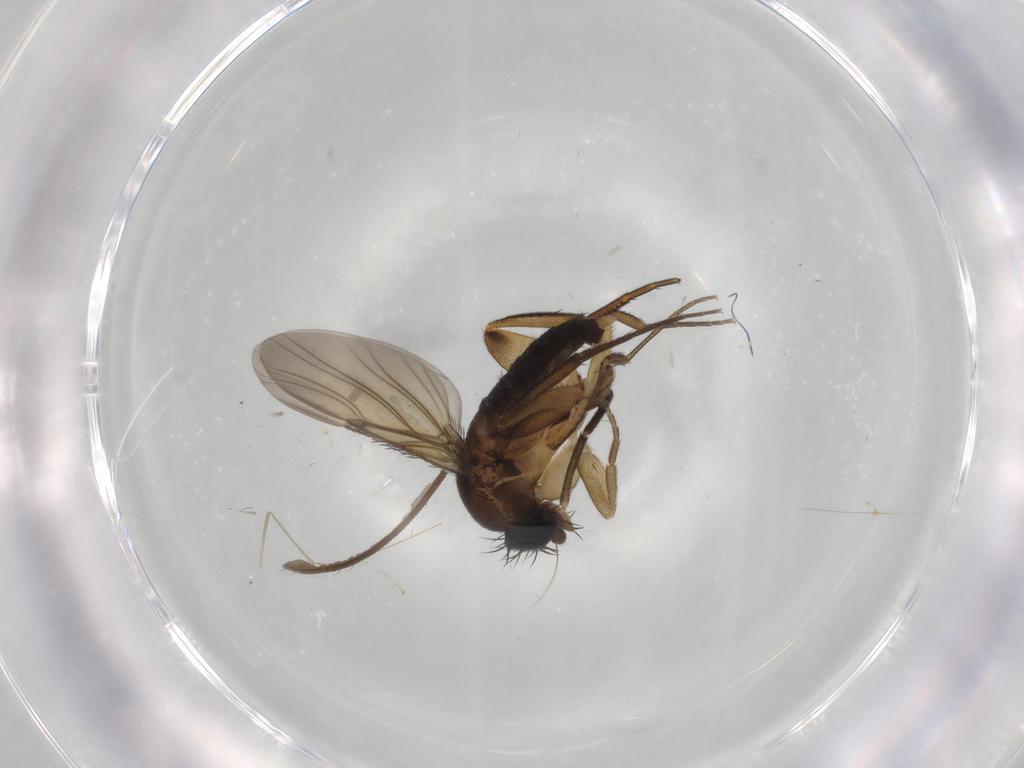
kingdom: Animalia
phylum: Arthropoda
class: Insecta
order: Diptera
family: Phoridae
